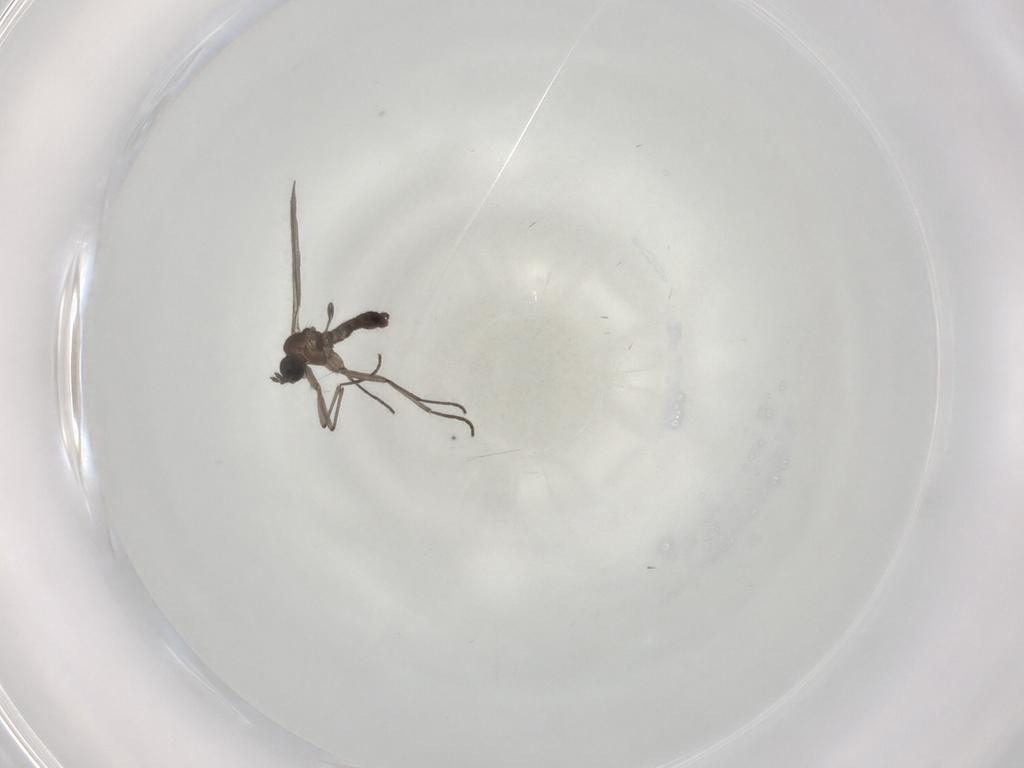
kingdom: Animalia
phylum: Arthropoda
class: Insecta
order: Diptera
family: Sciaridae
